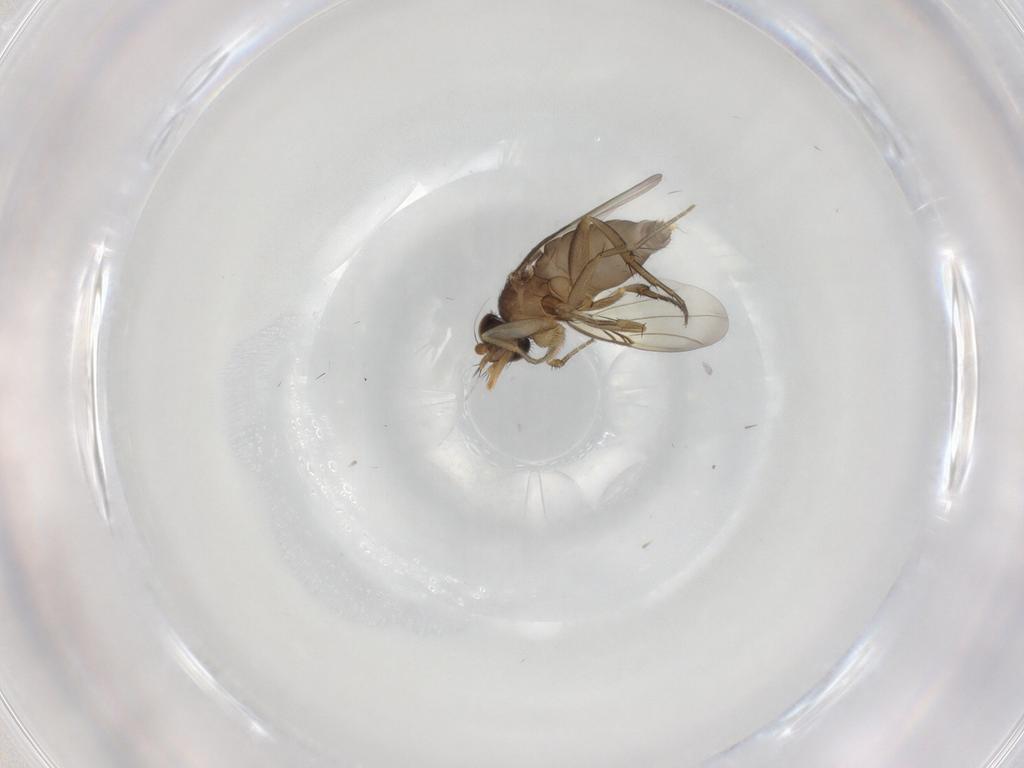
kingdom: Animalia
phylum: Arthropoda
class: Insecta
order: Diptera
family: Phoridae
